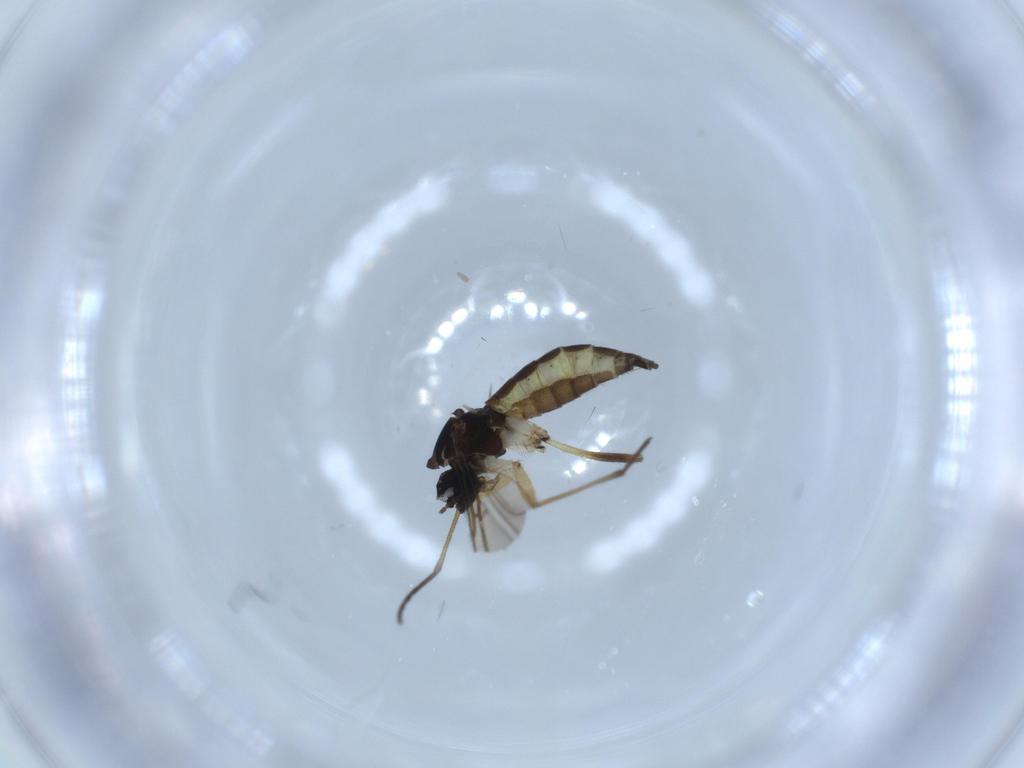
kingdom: Animalia
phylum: Arthropoda
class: Insecta
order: Diptera
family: Sciaridae
